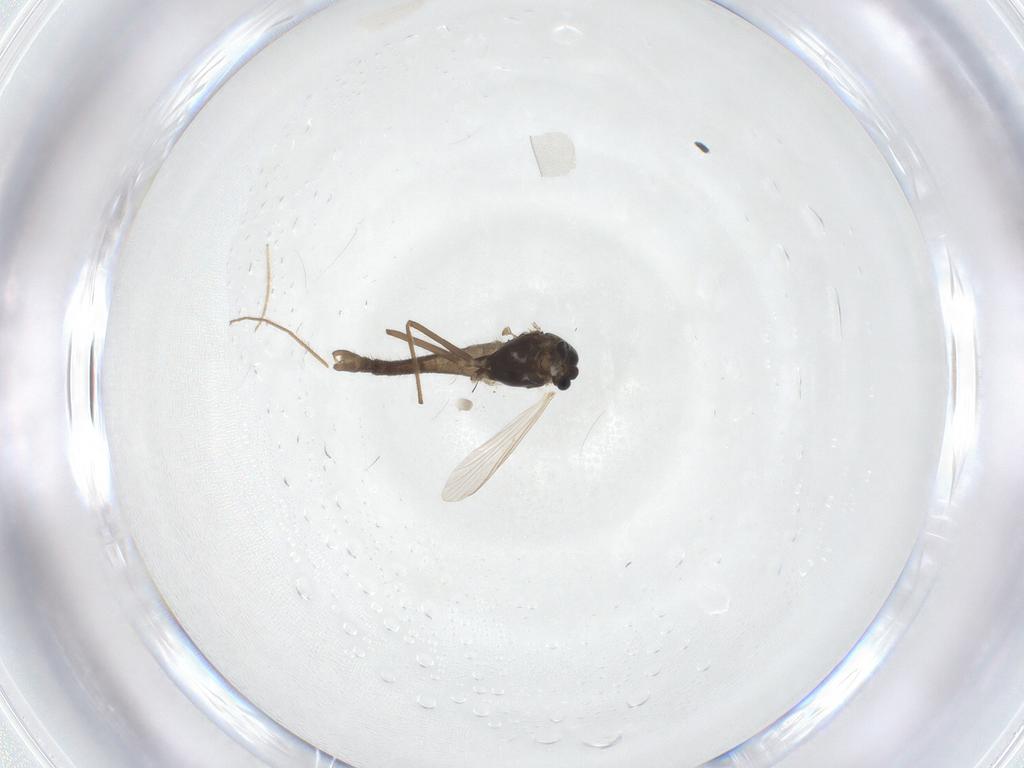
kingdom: Animalia
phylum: Arthropoda
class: Insecta
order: Diptera
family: Chironomidae
